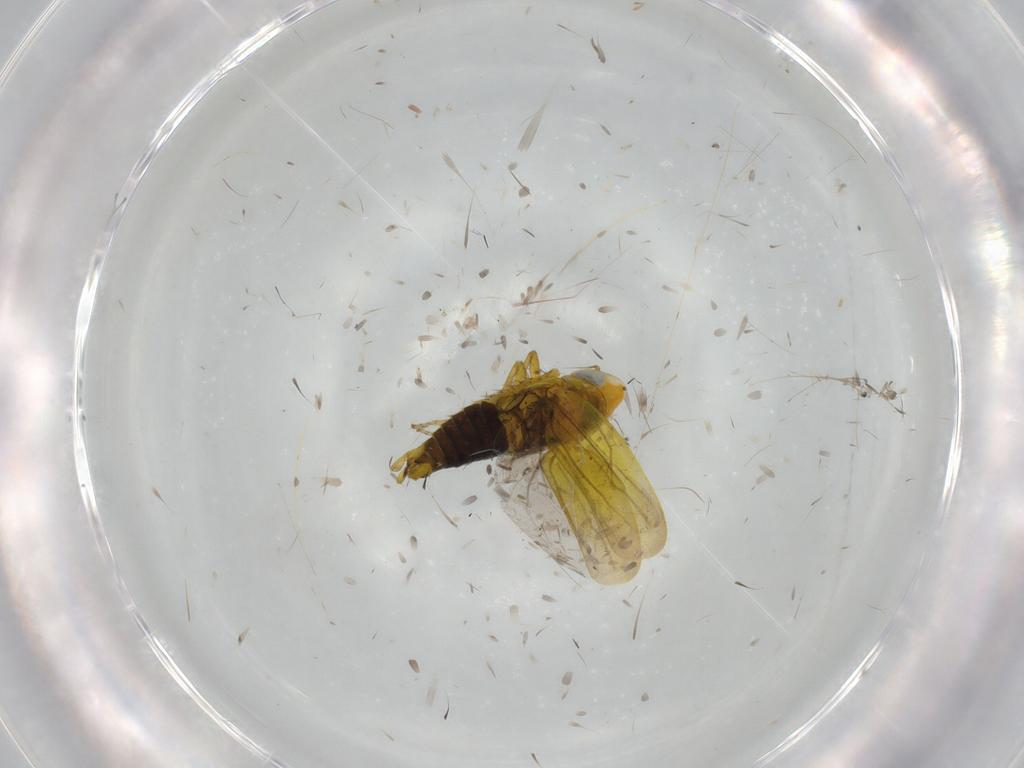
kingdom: Animalia
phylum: Arthropoda
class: Insecta
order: Hemiptera
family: Cicadellidae
